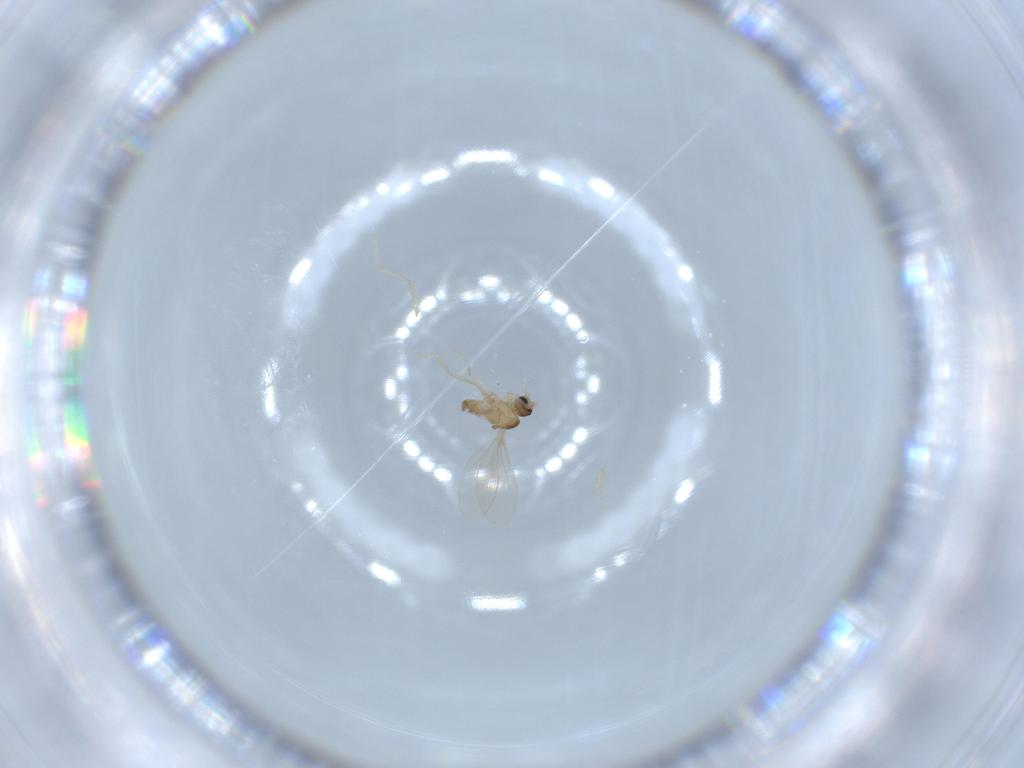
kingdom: Animalia
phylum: Arthropoda
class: Insecta
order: Diptera
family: Cecidomyiidae
